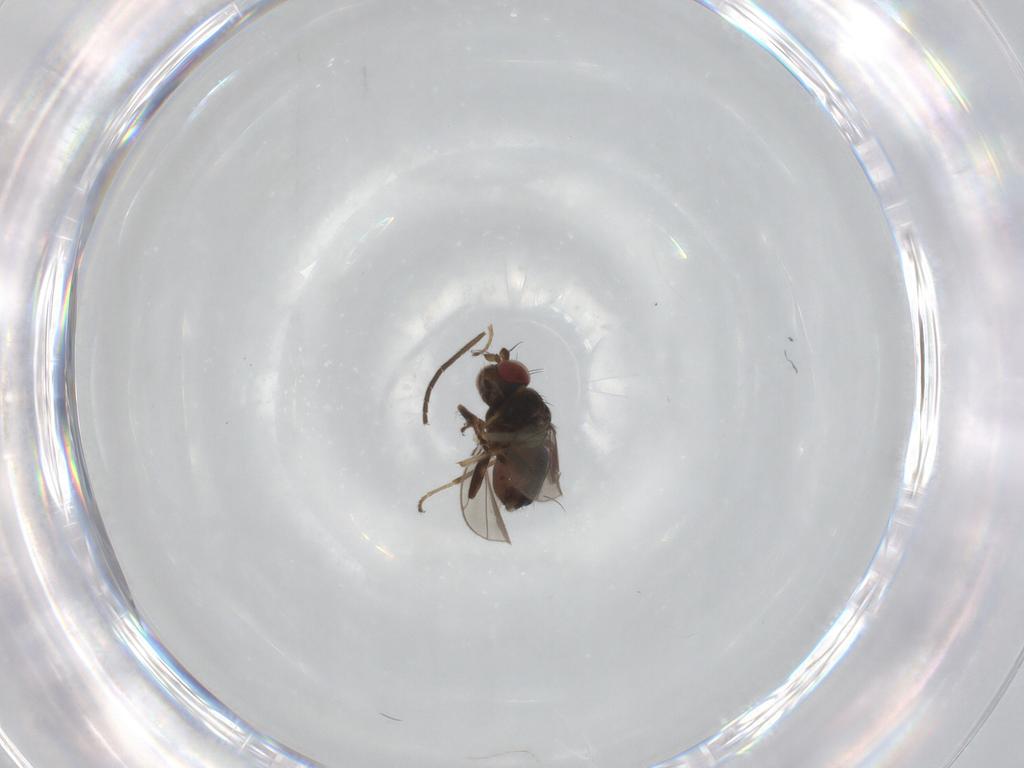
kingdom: Animalia
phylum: Arthropoda
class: Insecta
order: Diptera
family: Ephydridae
